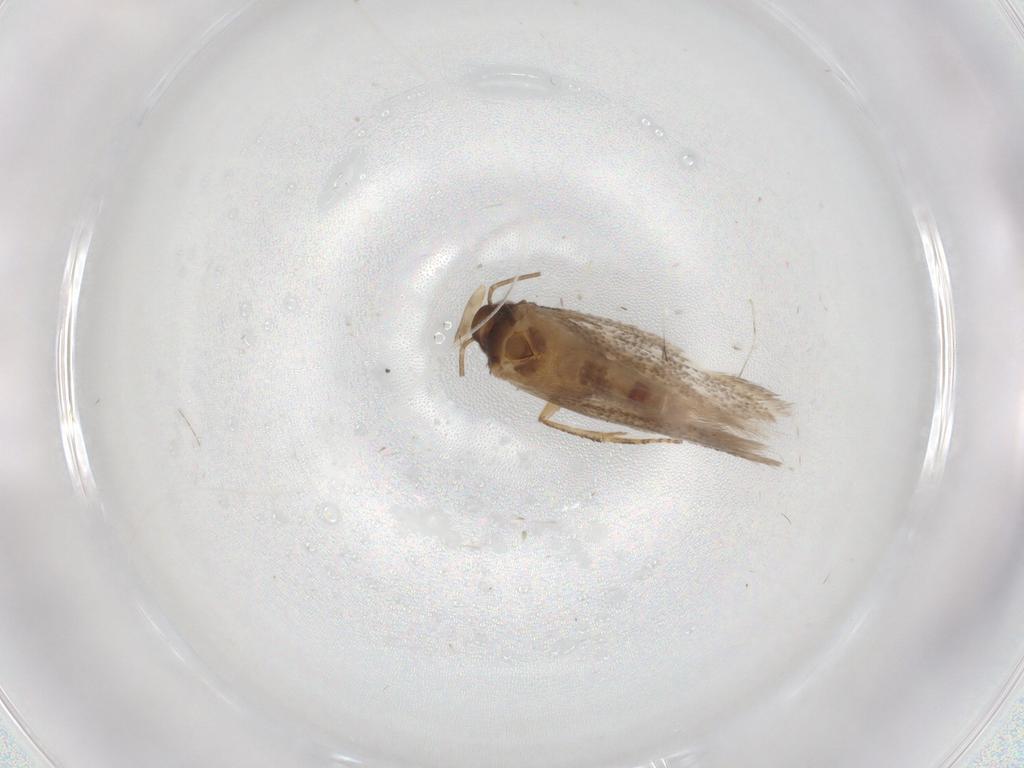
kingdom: Animalia
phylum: Arthropoda
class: Insecta
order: Lepidoptera
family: Gelechiidae
